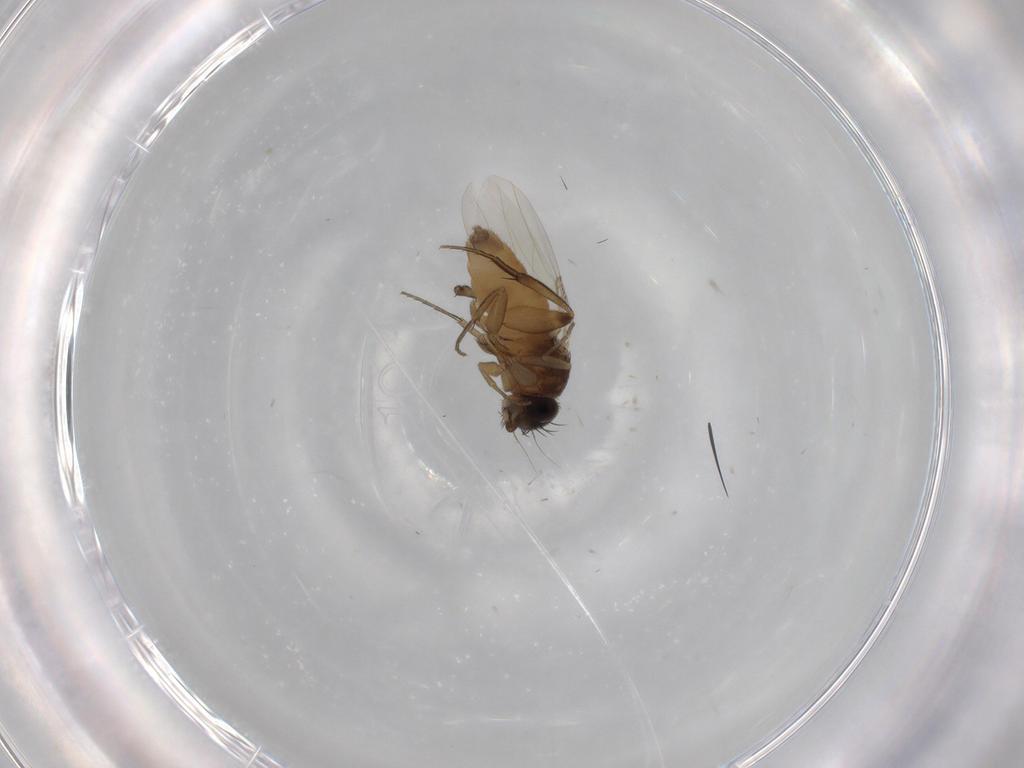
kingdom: Animalia
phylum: Arthropoda
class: Insecta
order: Diptera
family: Phoridae
